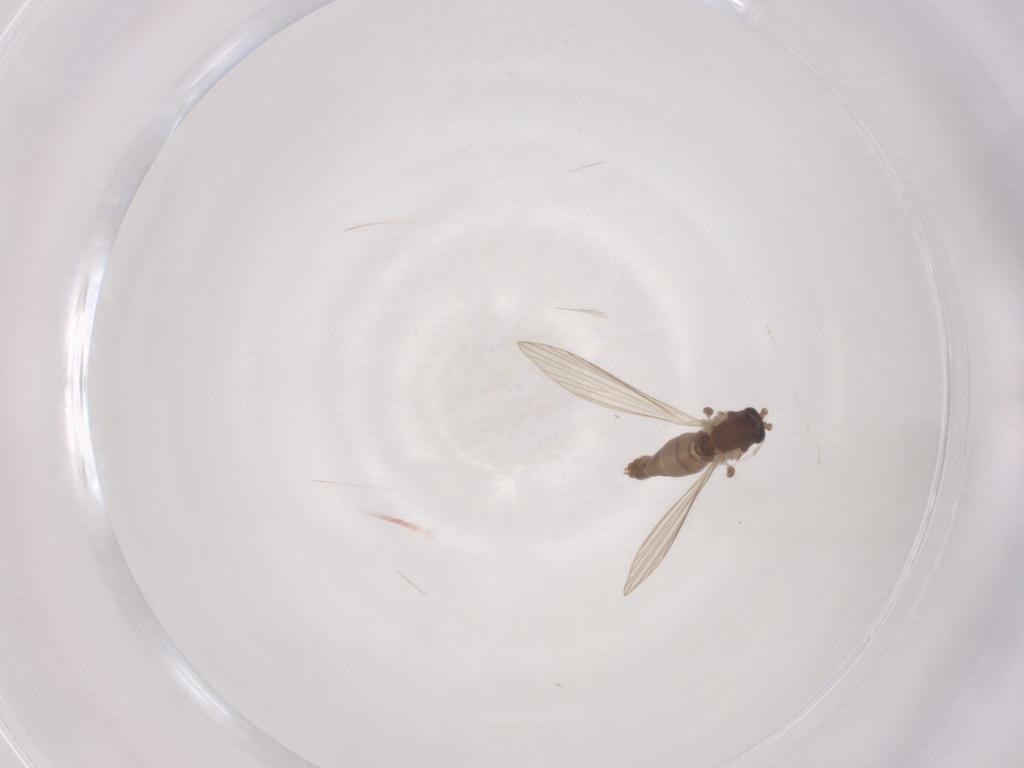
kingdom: Animalia
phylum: Arthropoda
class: Insecta
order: Diptera
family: Psychodidae
